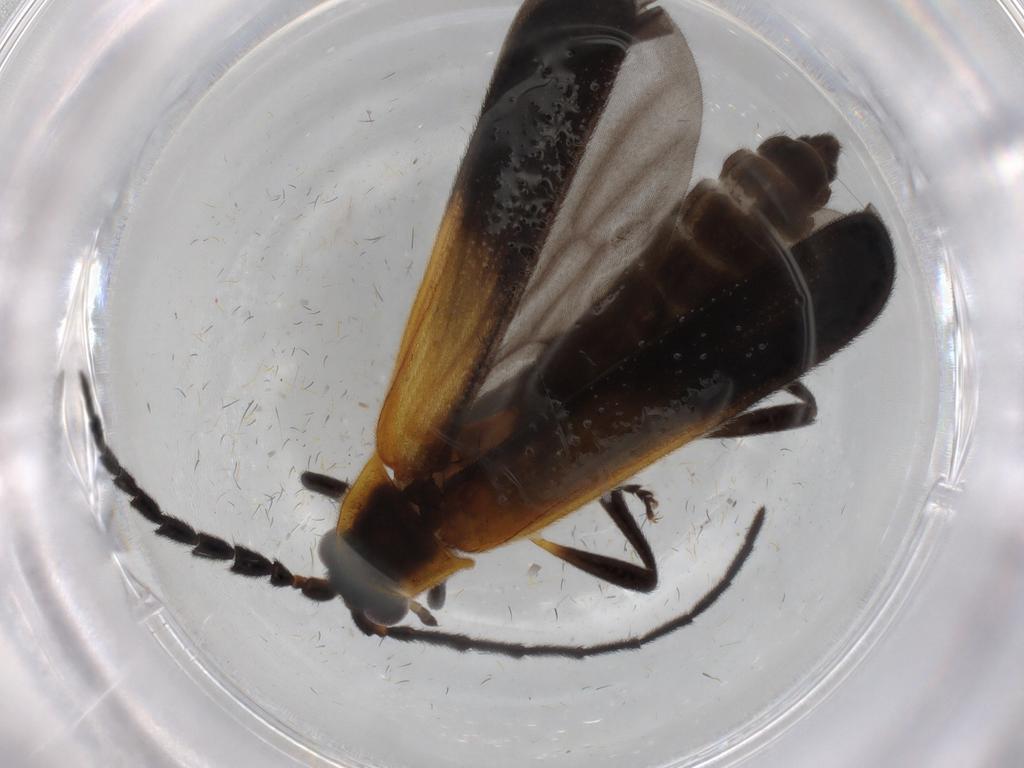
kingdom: Animalia
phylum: Arthropoda
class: Insecta
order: Coleoptera
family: Lycidae
